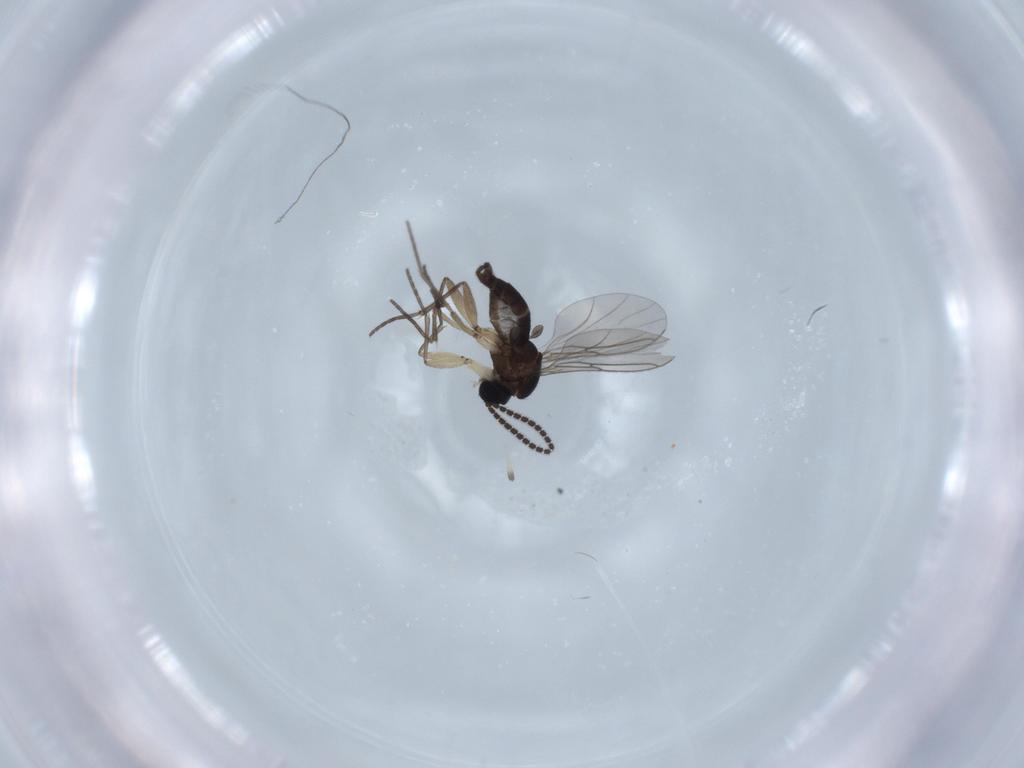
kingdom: Animalia
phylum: Arthropoda
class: Insecta
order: Diptera
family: Sciaridae
